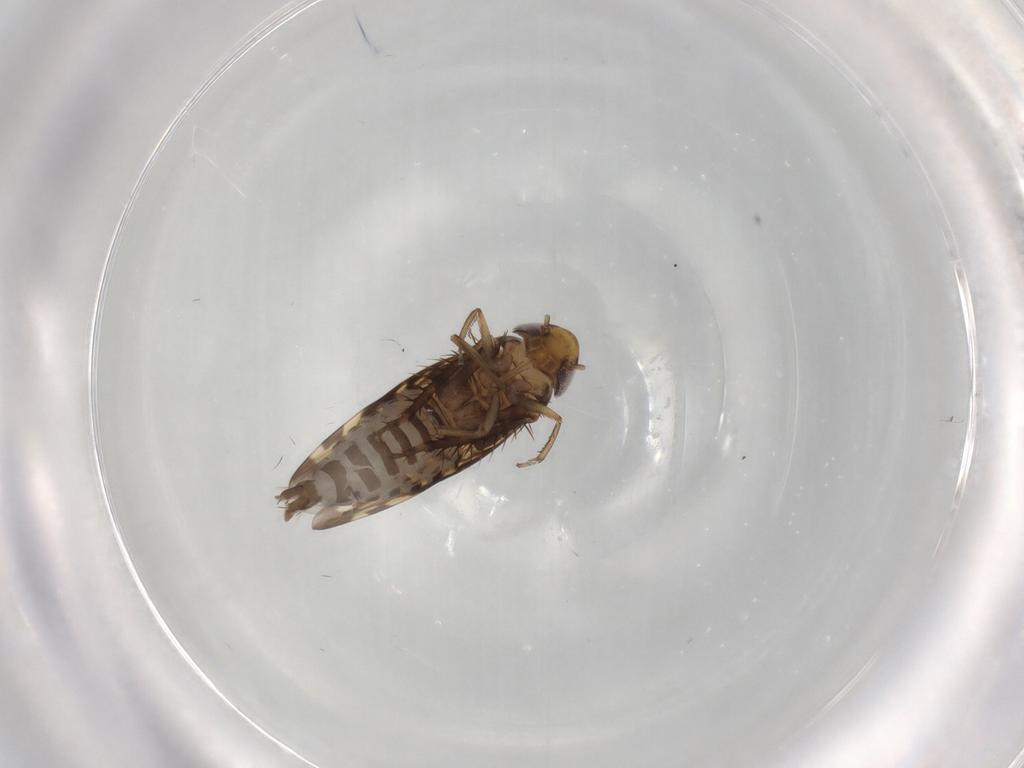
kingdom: Animalia
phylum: Arthropoda
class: Insecta
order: Hemiptera
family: Cicadellidae
